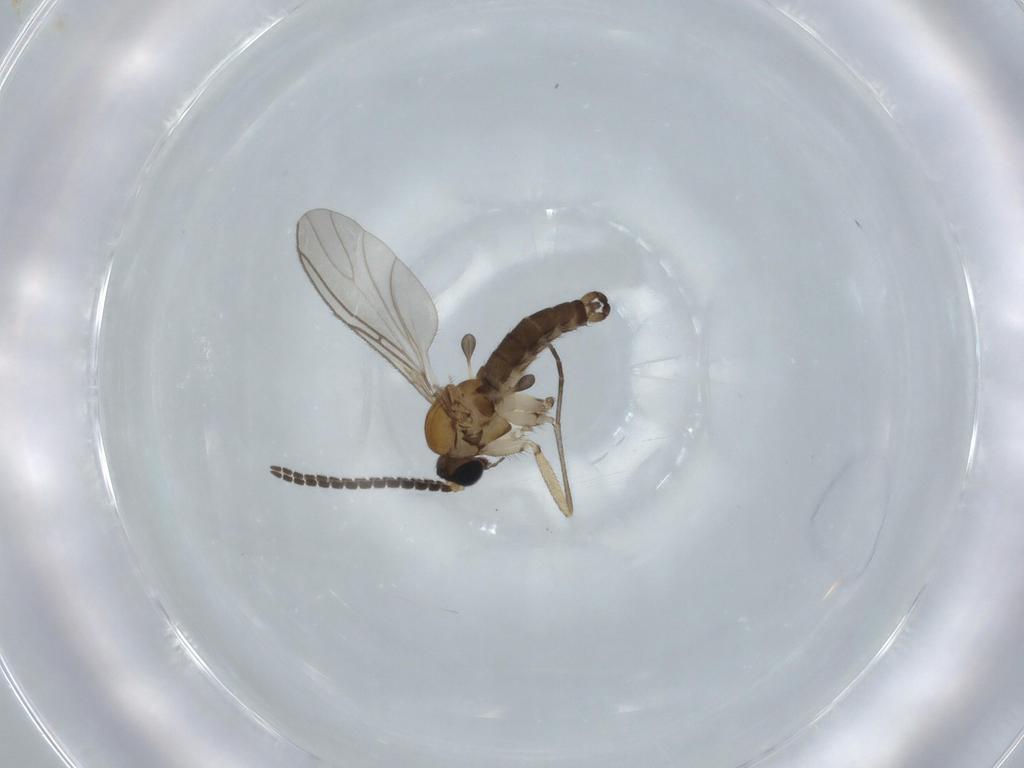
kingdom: Animalia
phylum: Arthropoda
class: Insecta
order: Diptera
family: Sciaridae
